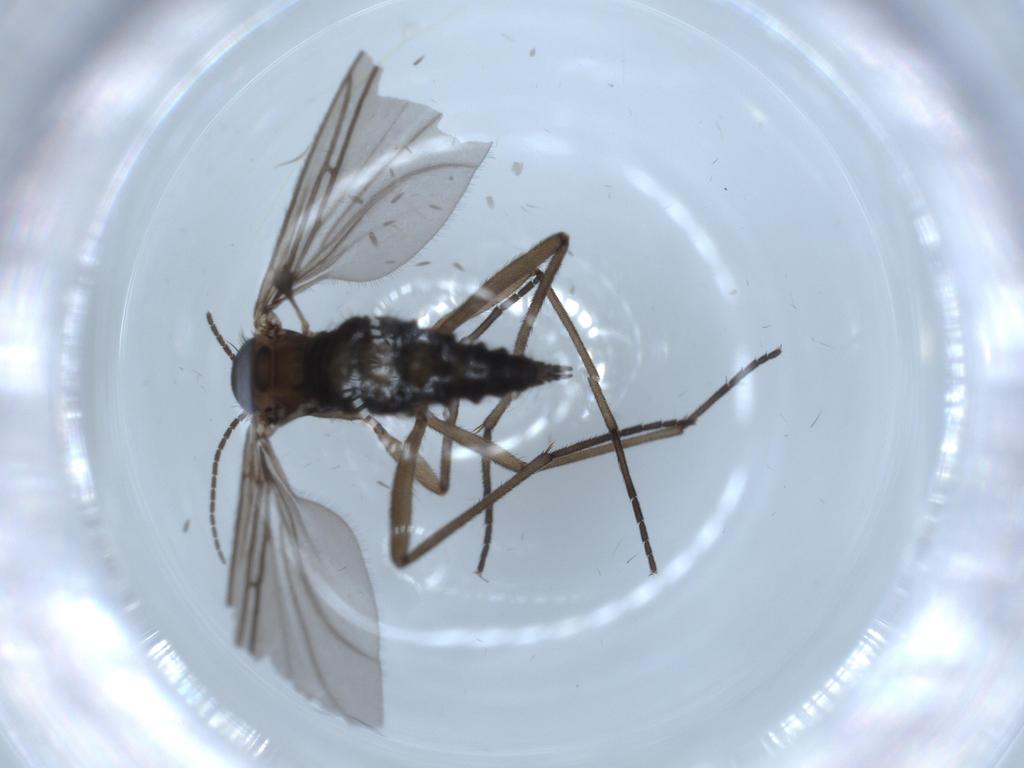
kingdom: Animalia
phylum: Arthropoda
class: Insecta
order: Diptera
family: Sciaridae
